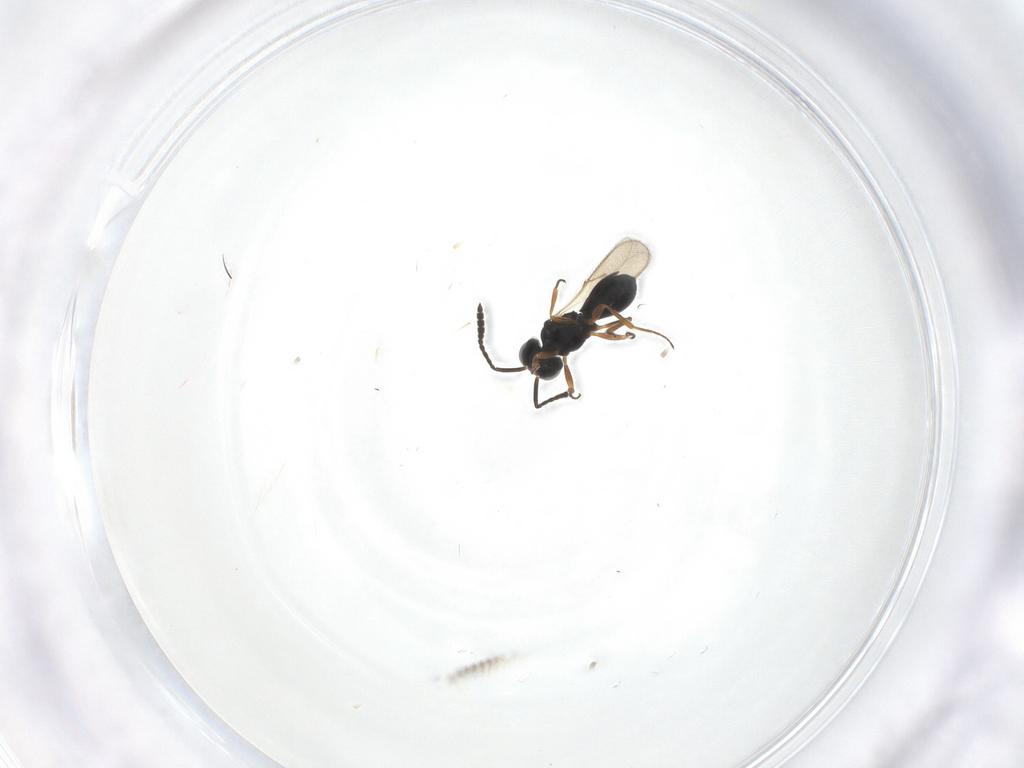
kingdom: Animalia
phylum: Arthropoda
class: Insecta
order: Hymenoptera
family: Scelionidae
